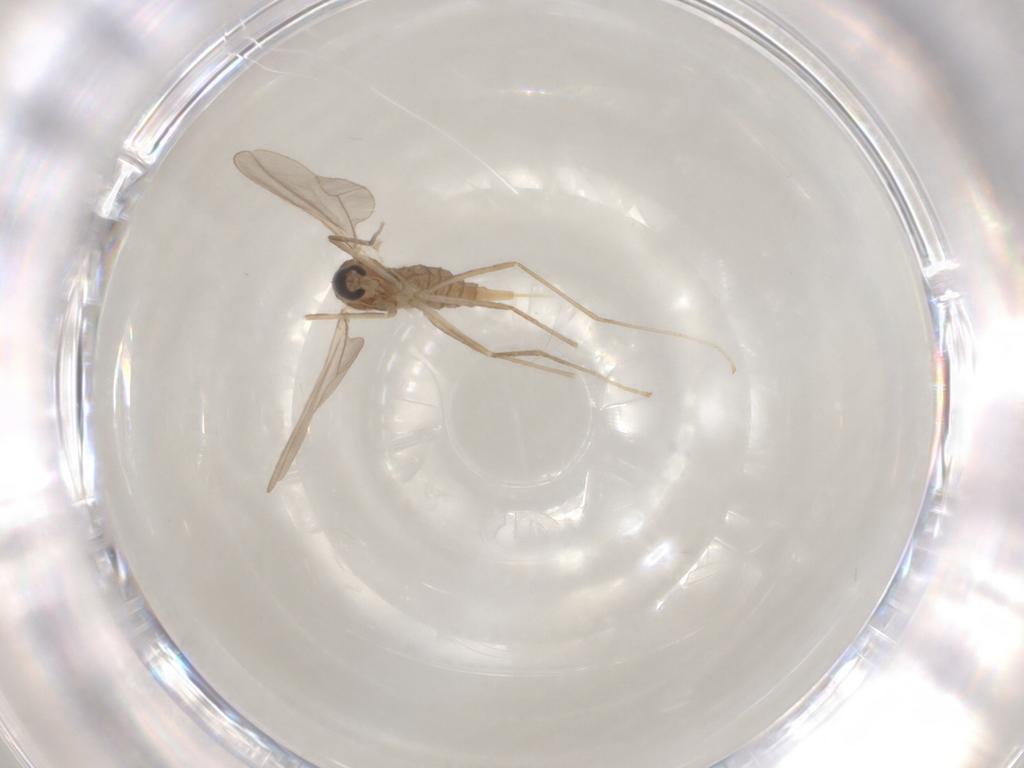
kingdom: Animalia
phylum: Arthropoda
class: Insecta
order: Diptera
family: Cecidomyiidae
